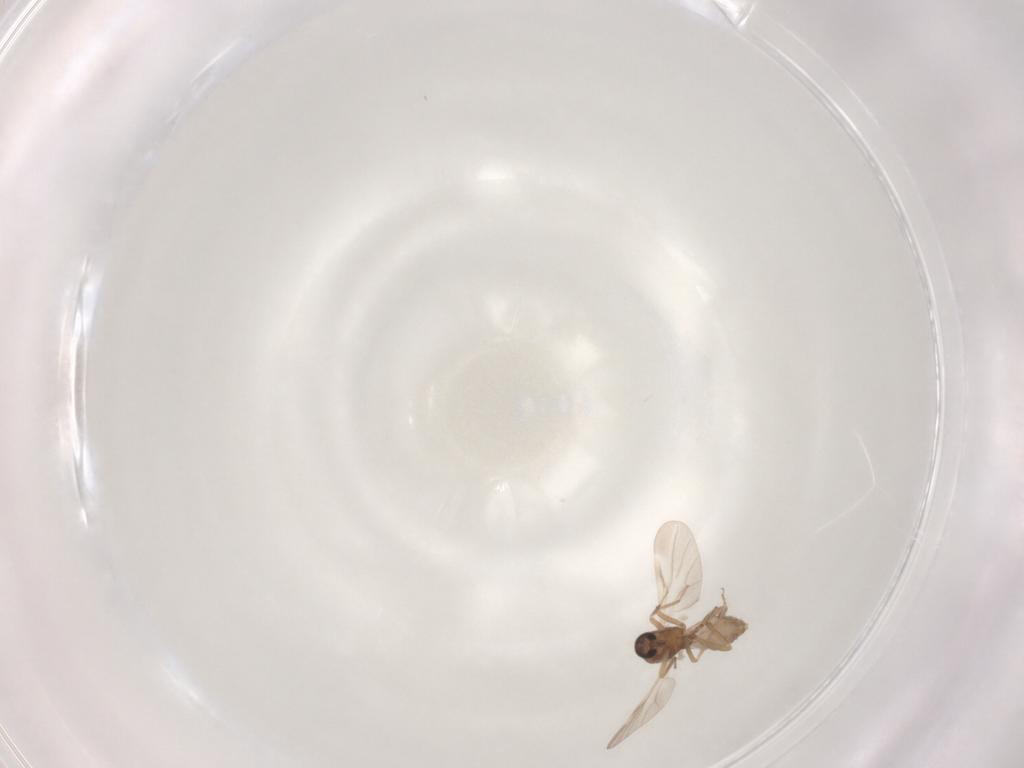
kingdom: Animalia
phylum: Arthropoda
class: Insecta
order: Diptera
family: Ceratopogonidae
